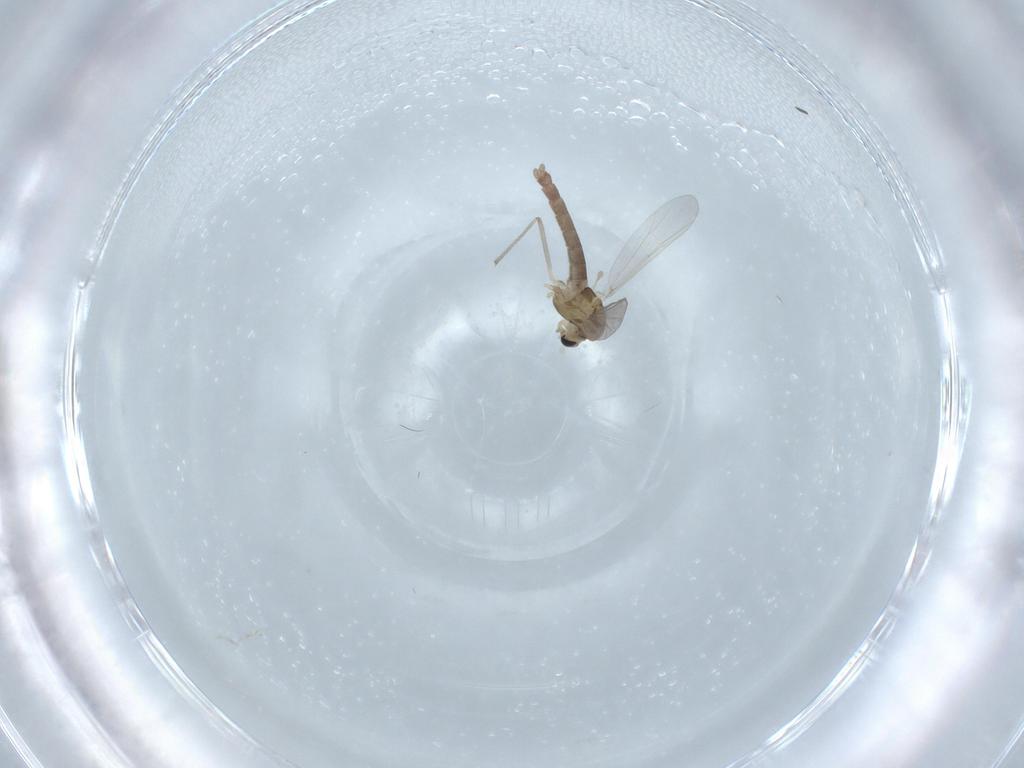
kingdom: Animalia
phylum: Arthropoda
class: Insecta
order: Diptera
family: Chironomidae
